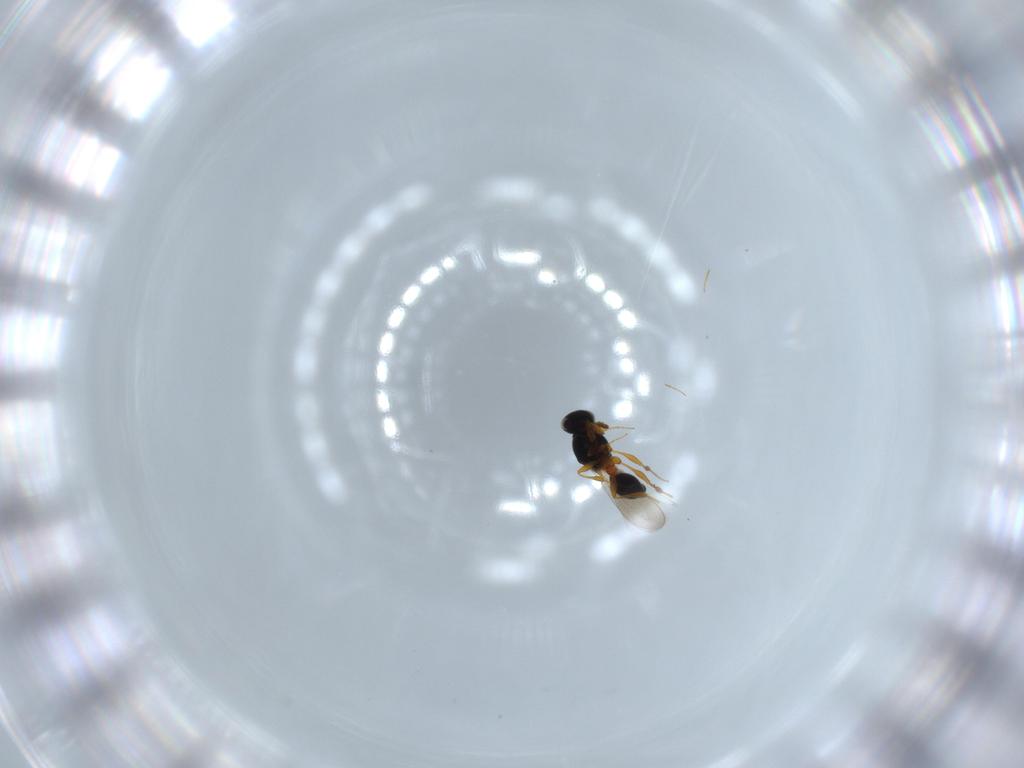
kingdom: Animalia
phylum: Arthropoda
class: Insecta
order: Hymenoptera
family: Platygastridae
